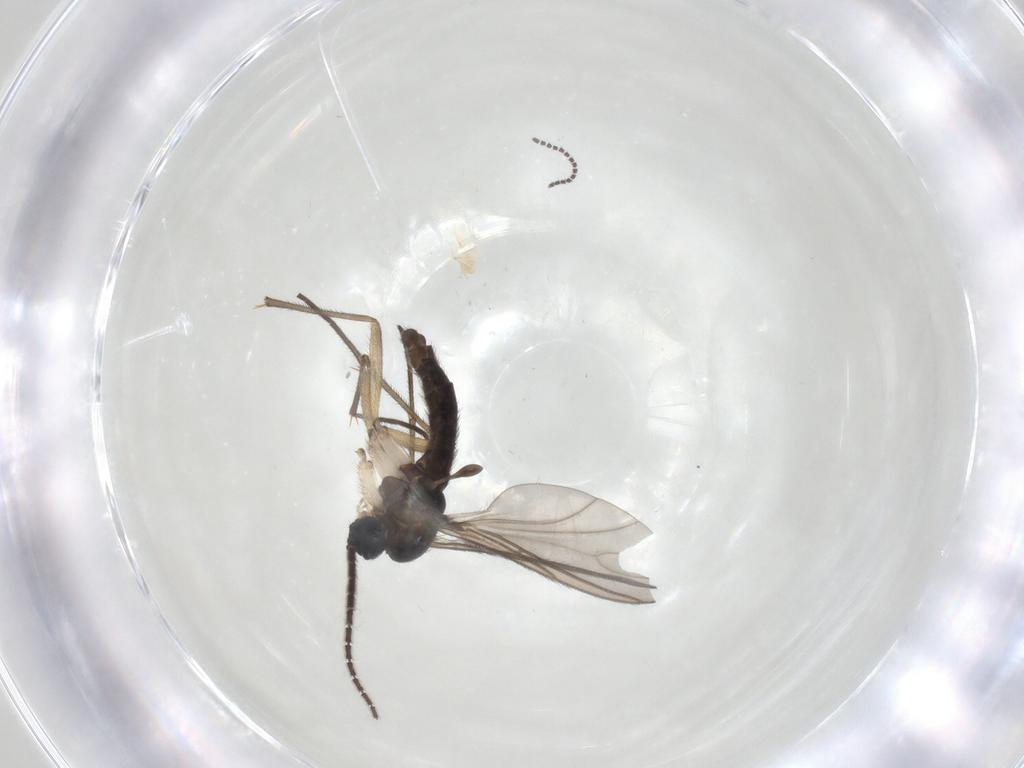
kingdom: Animalia
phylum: Arthropoda
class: Insecta
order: Diptera
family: Sciaridae
